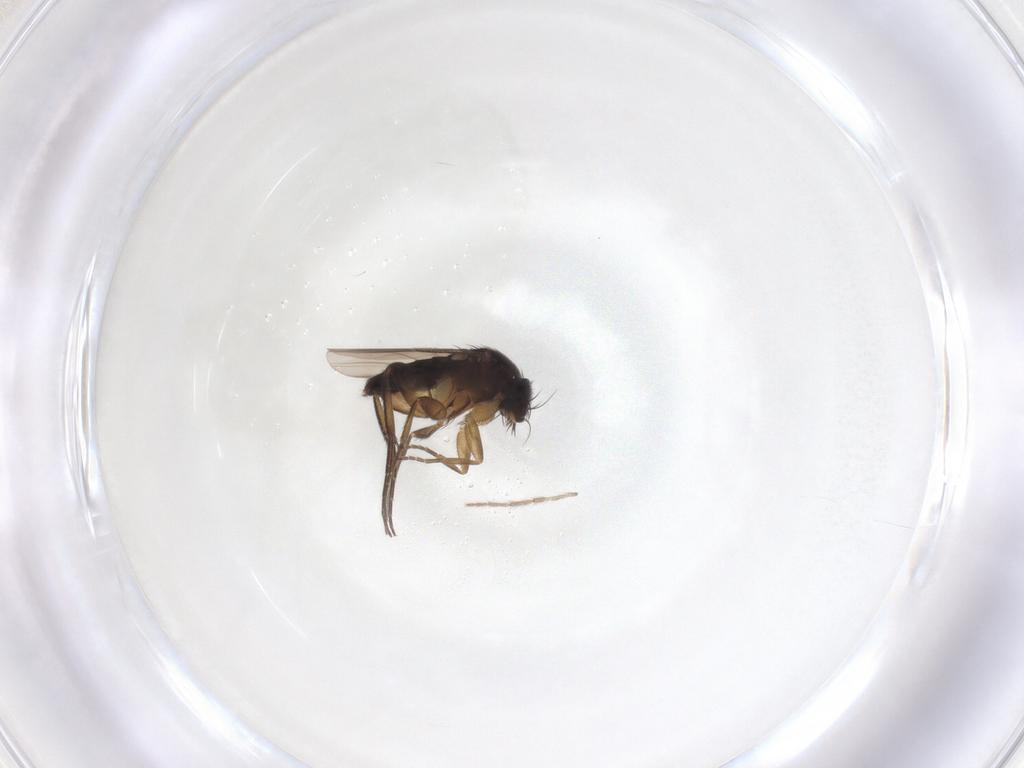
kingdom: Animalia
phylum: Arthropoda
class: Insecta
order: Diptera
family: Phoridae
